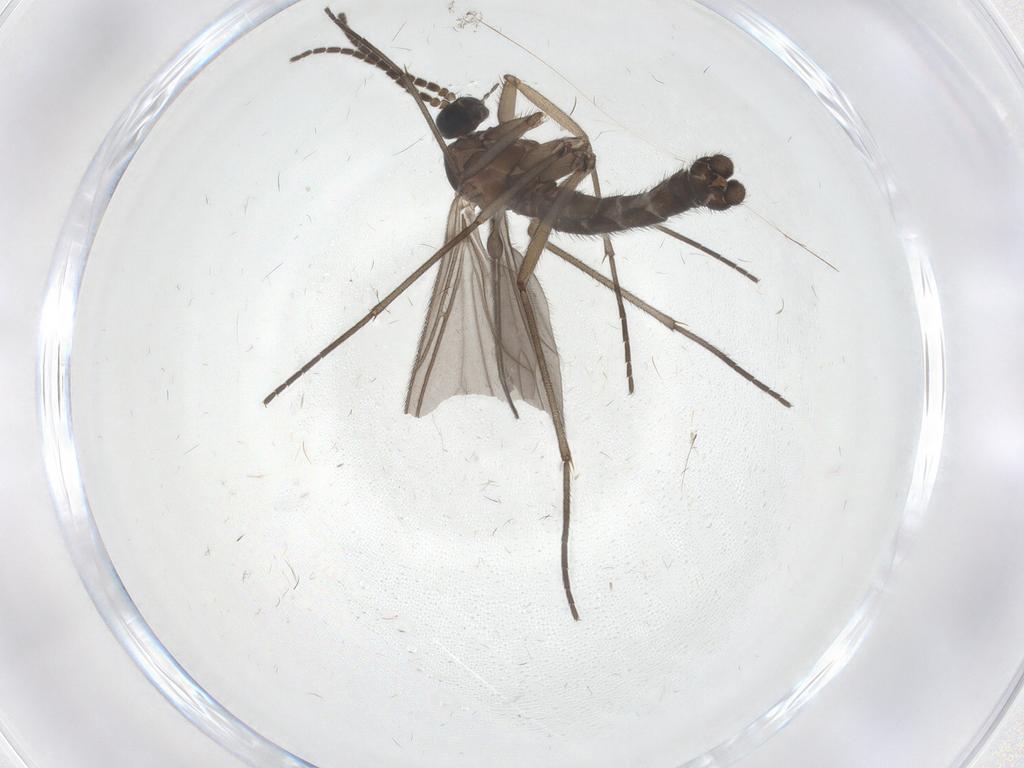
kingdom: Animalia
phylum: Arthropoda
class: Insecta
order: Diptera
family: Sciaridae
